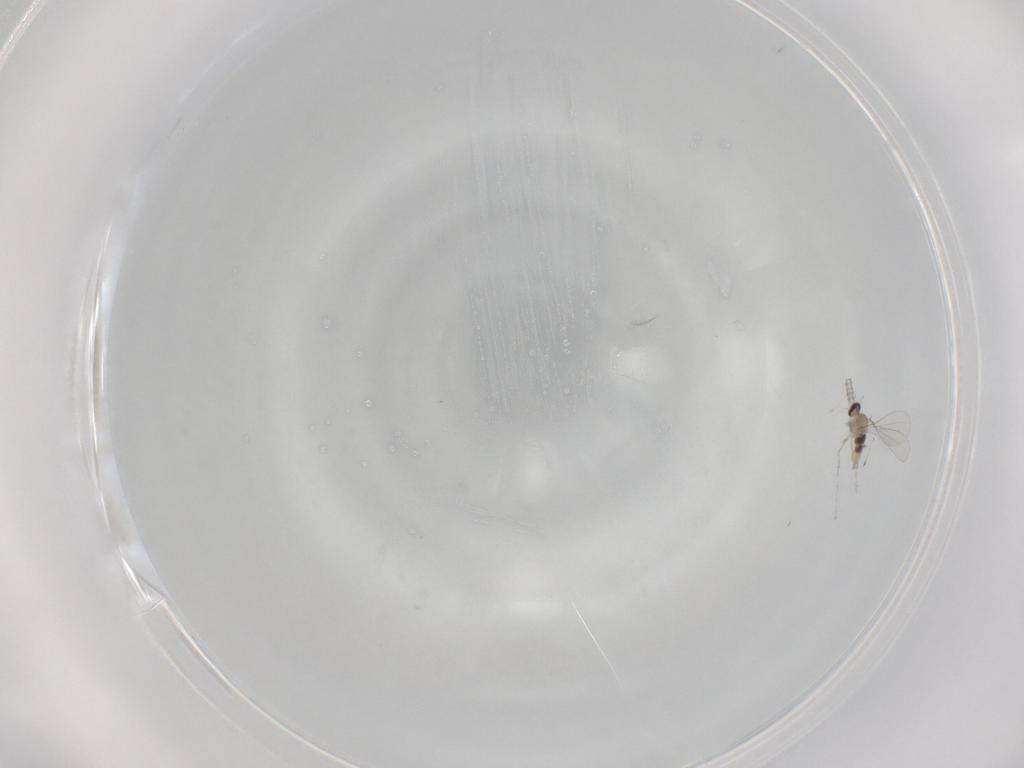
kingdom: Animalia
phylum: Arthropoda
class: Insecta
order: Diptera
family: Cecidomyiidae
